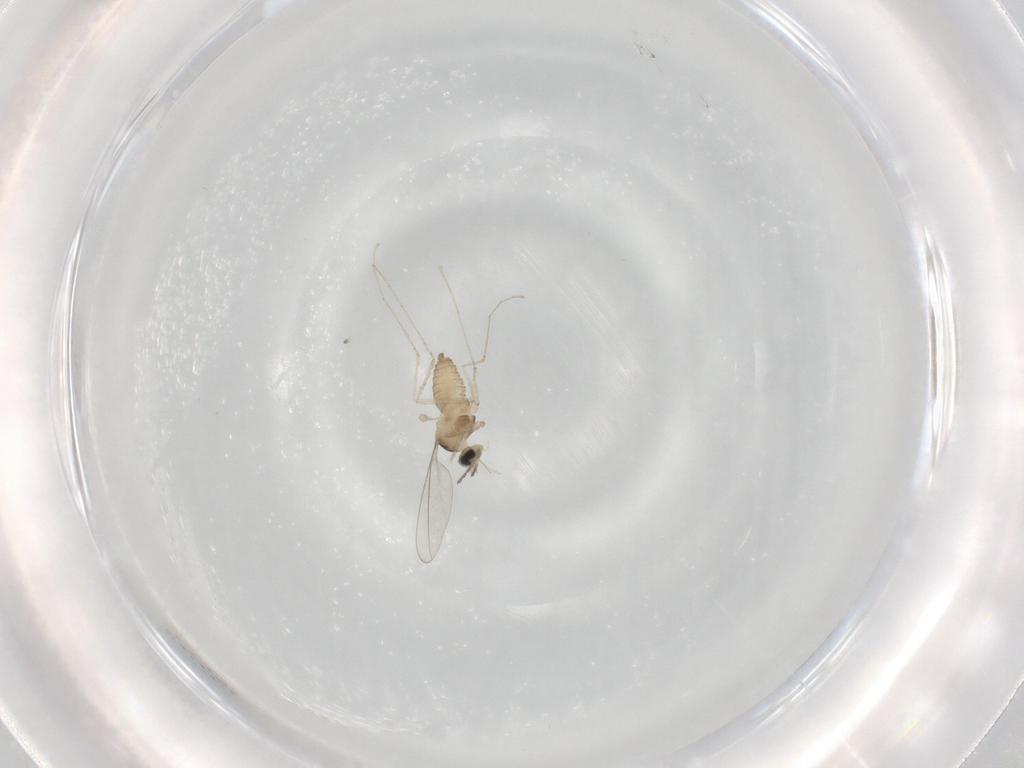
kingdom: Animalia
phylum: Arthropoda
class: Insecta
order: Diptera
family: Cecidomyiidae
